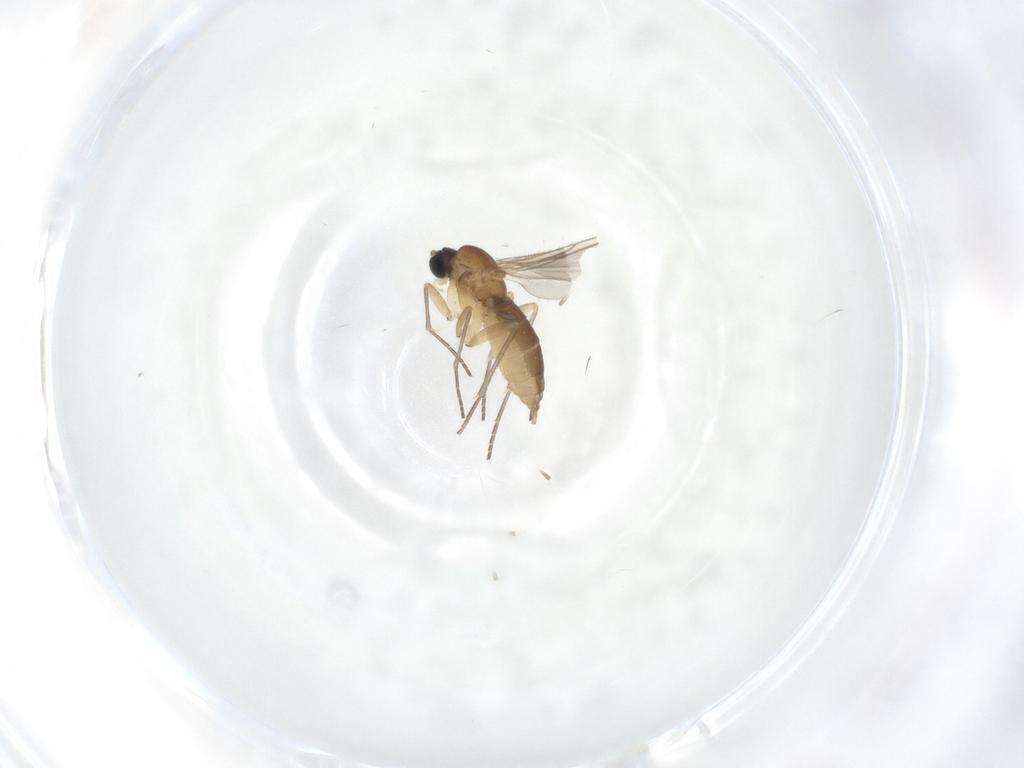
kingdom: Animalia
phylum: Arthropoda
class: Insecta
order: Diptera
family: Sciaridae
